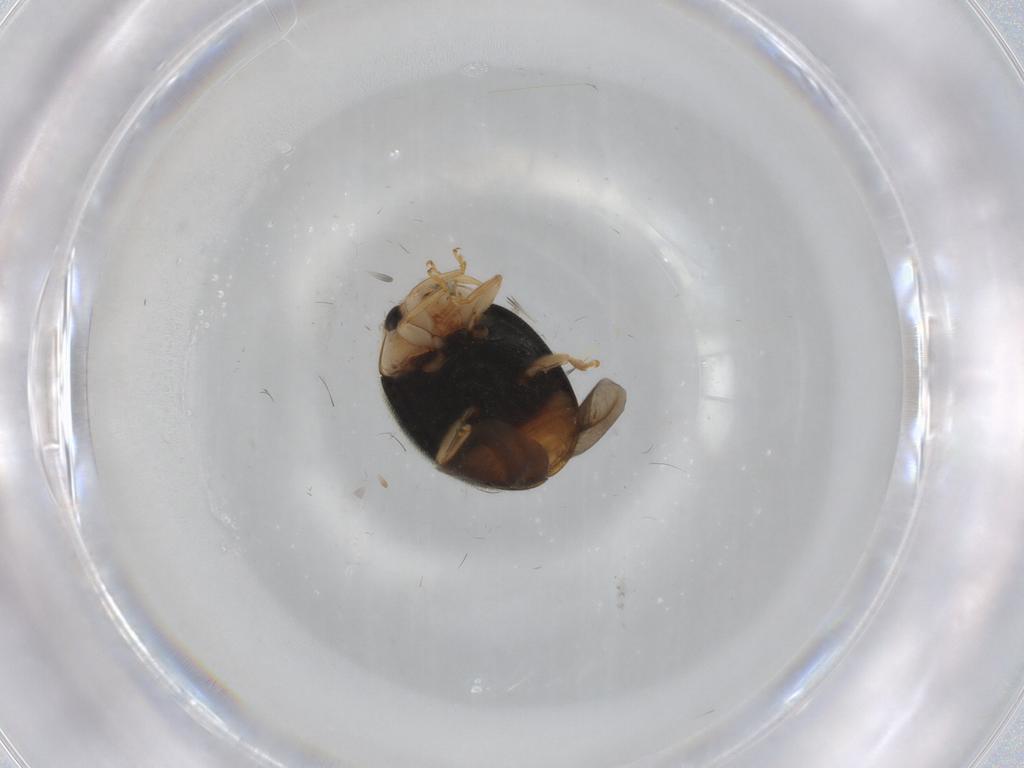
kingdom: Animalia
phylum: Arthropoda
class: Insecta
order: Coleoptera
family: Coccinellidae
